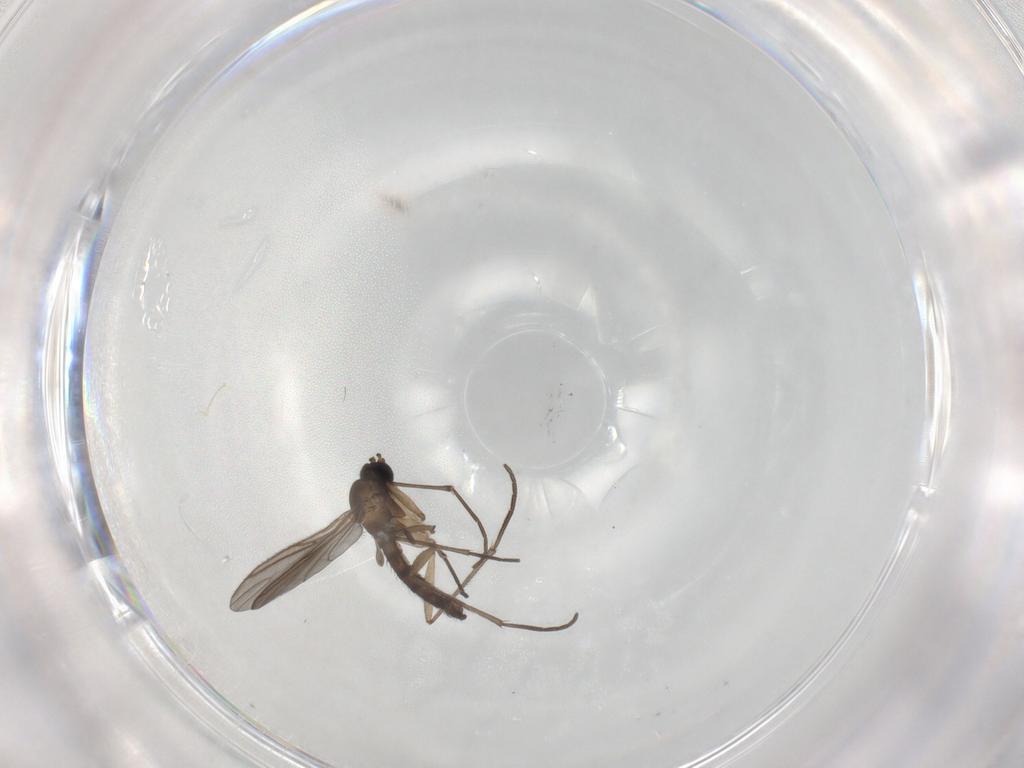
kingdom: Animalia
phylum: Arthropoda
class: Insecta
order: Diptera
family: Sciaridae
